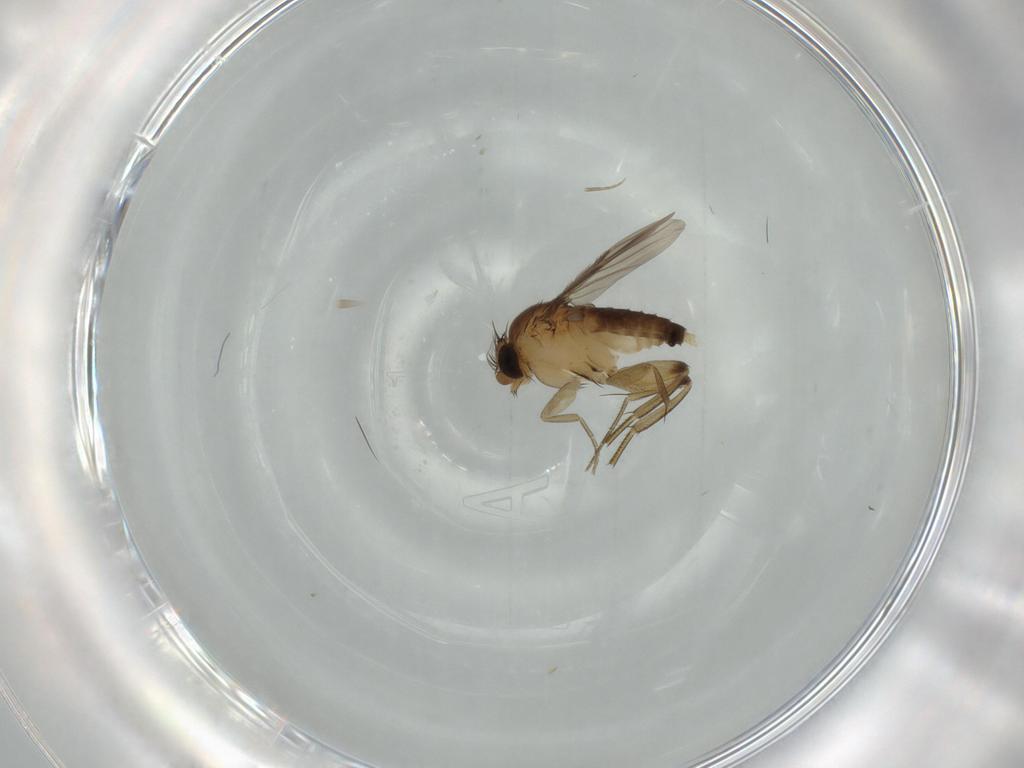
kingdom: Animalia
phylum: Arthropoda
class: Insecta
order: Diptera
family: Phoridae
